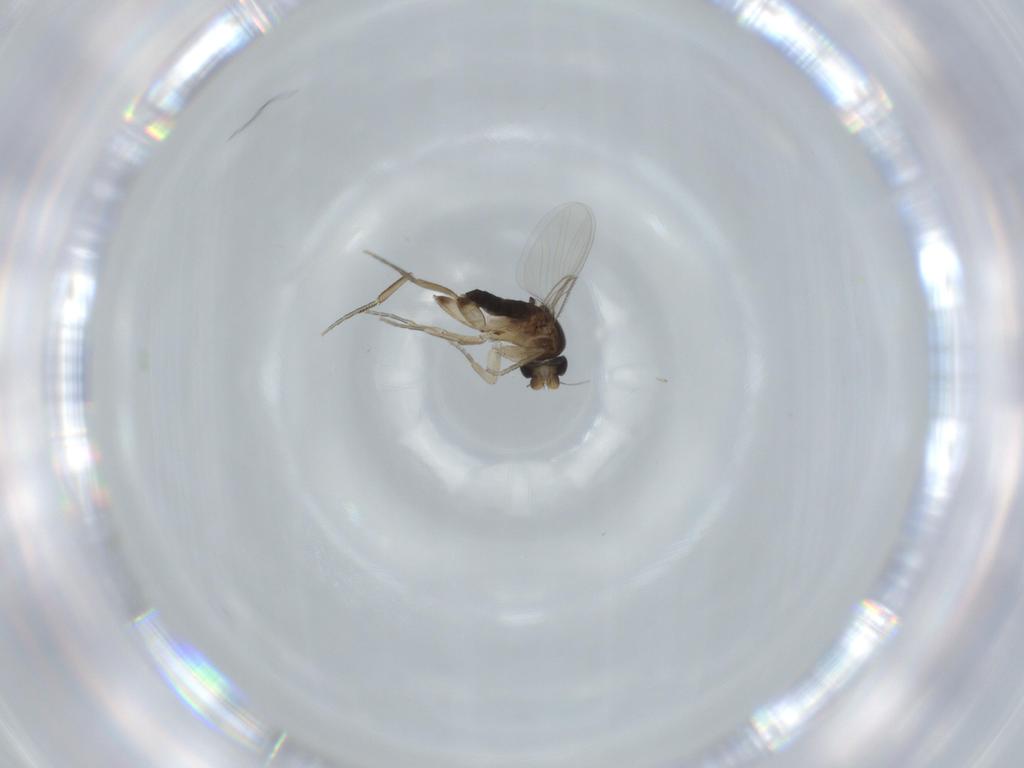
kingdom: Animalia
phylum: Arthropoda
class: Insecta
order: Diptera
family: Phoridae
